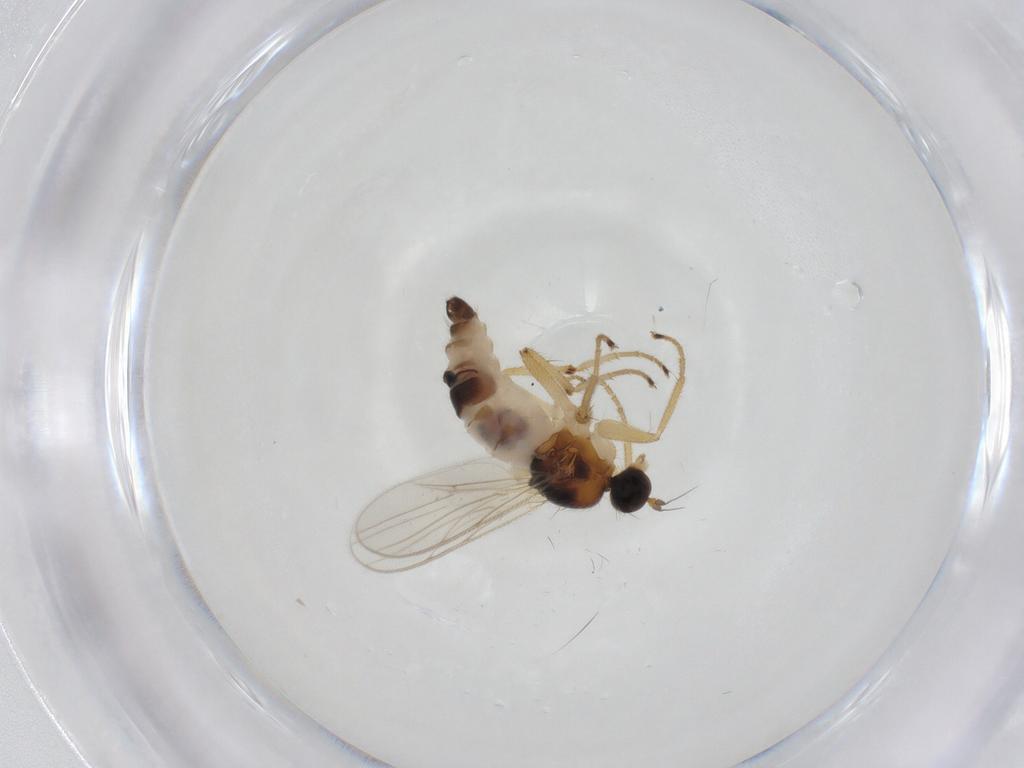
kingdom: Animalia
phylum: Arthropoda
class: Insecta
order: Diptera
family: Hybotidae
